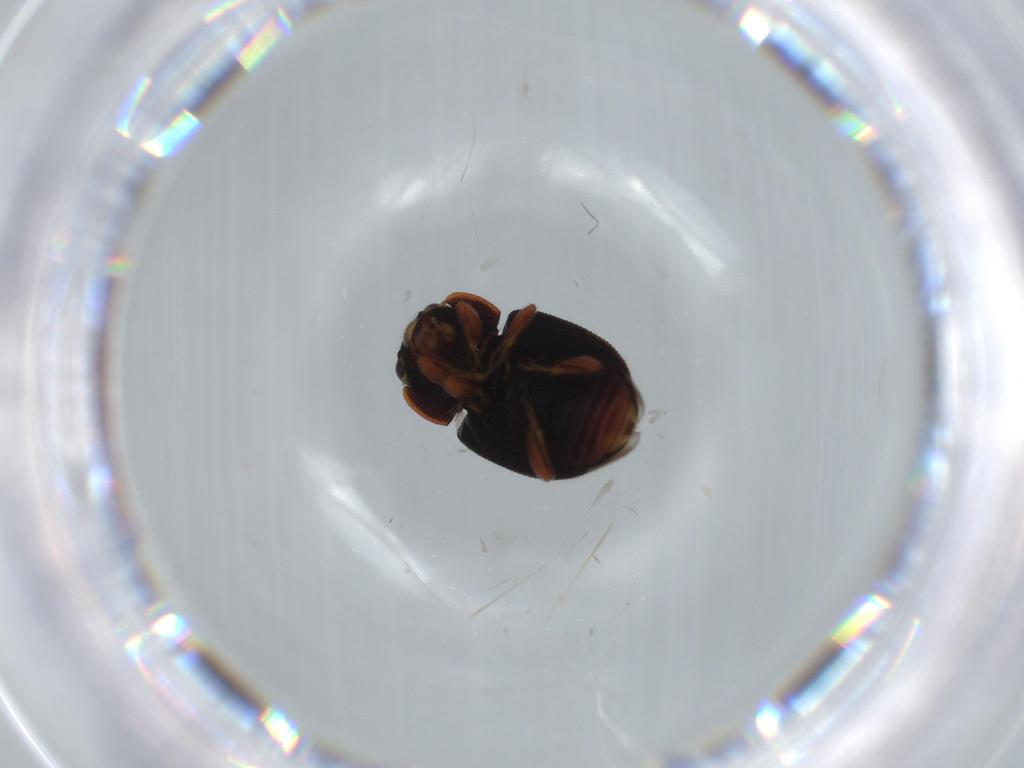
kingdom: Animalia
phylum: Arthropoda
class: Insecta
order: Coleoptera
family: Coccinellidae
